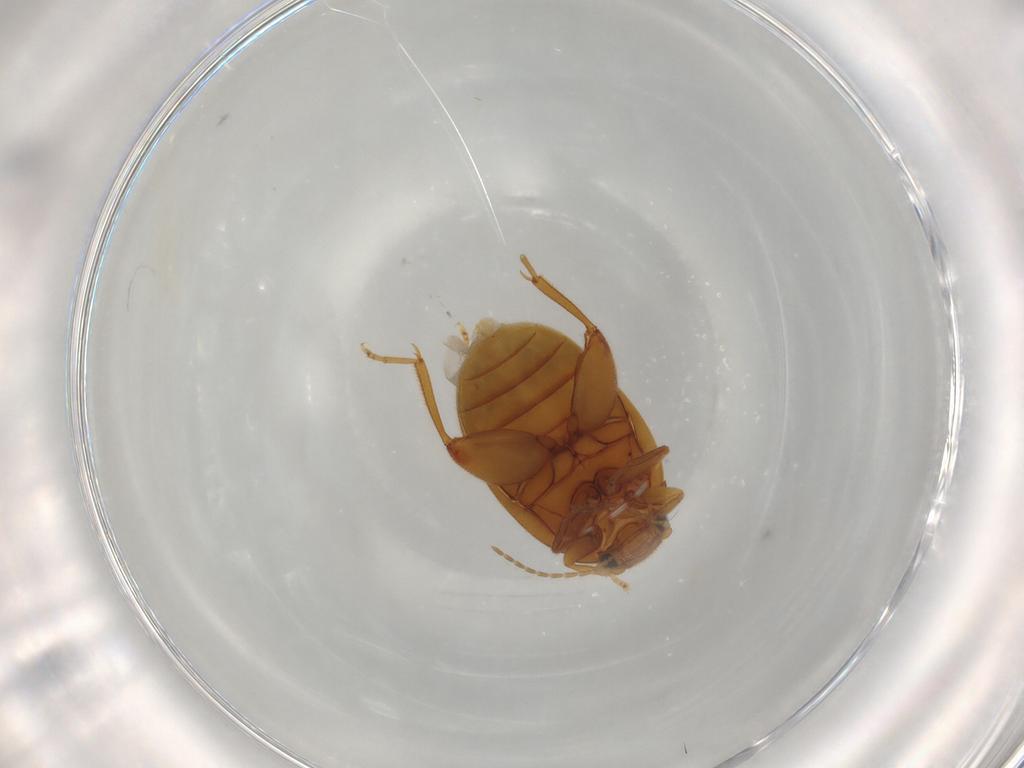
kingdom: Animalia
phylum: Arthropoda
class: Insecta
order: Coleoptera
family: Scirtidae
